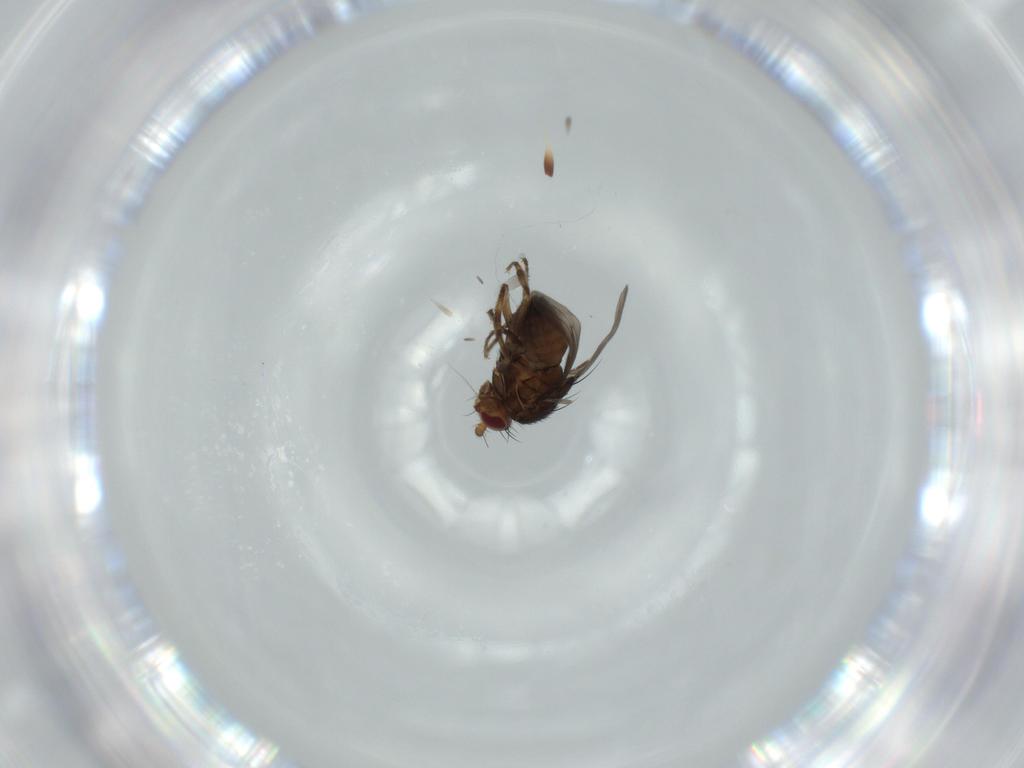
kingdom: Animalia
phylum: Arthropoda
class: Insecta
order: Diptera
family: Sphaeroceridae
